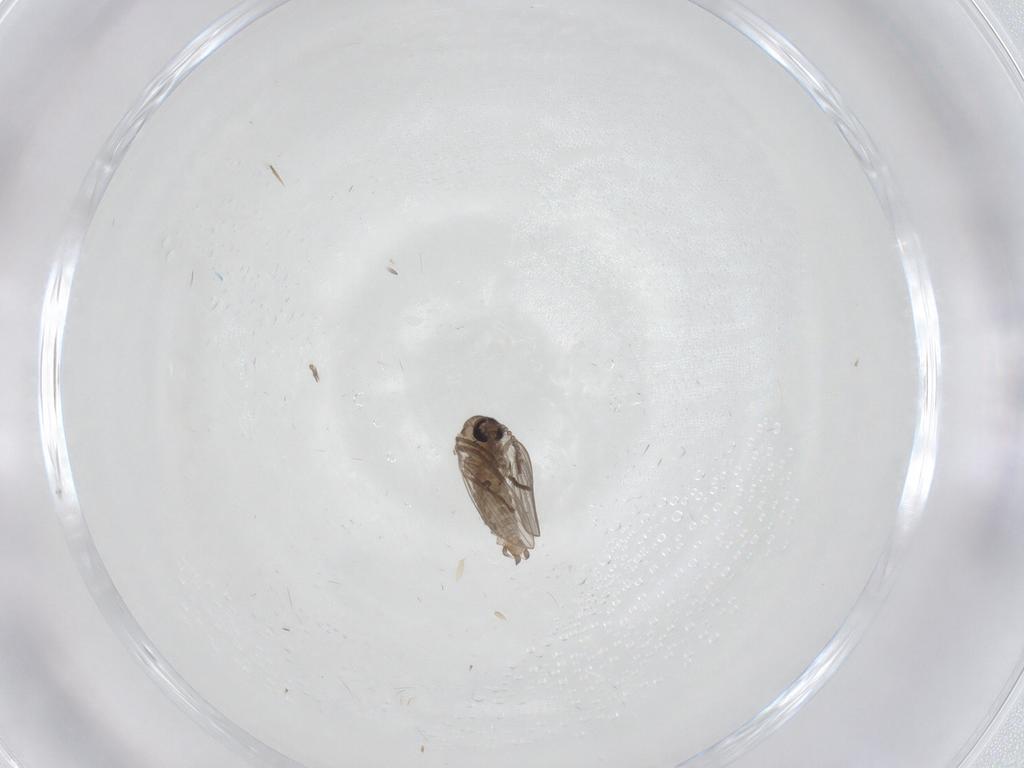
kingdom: Animalia
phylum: Arthropoda
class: Insecta
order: Diptera
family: Chironomidae
